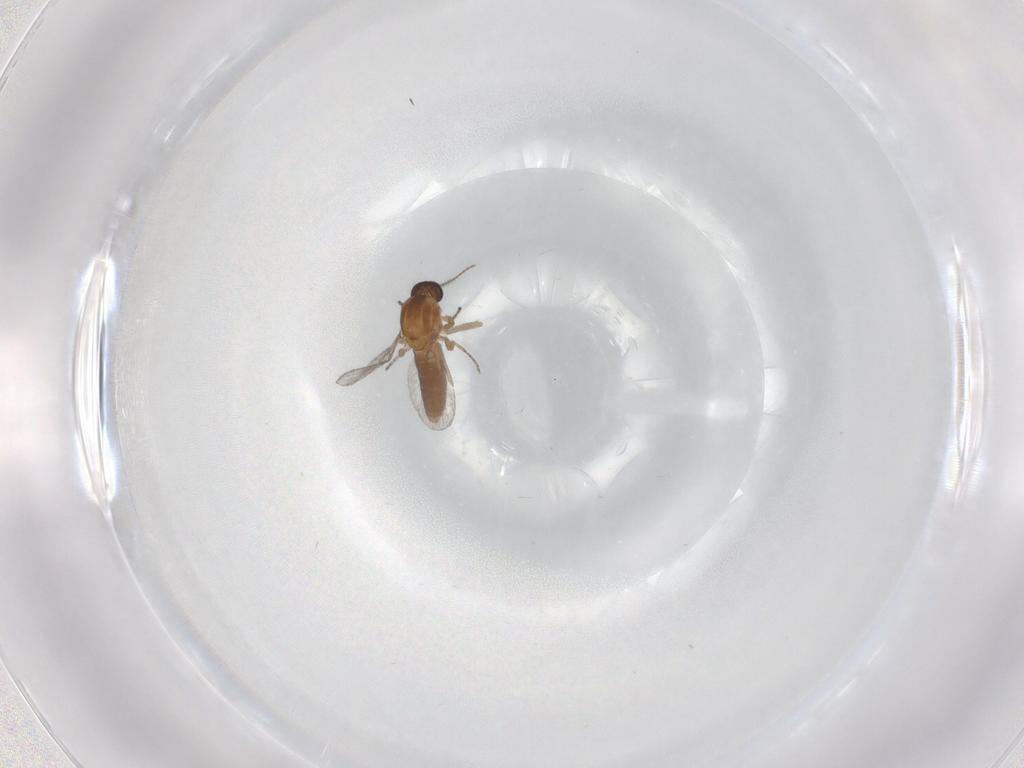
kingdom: Animalia
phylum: Arthropoda
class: Insecta
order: Diptera
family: Ceratopogonidae
